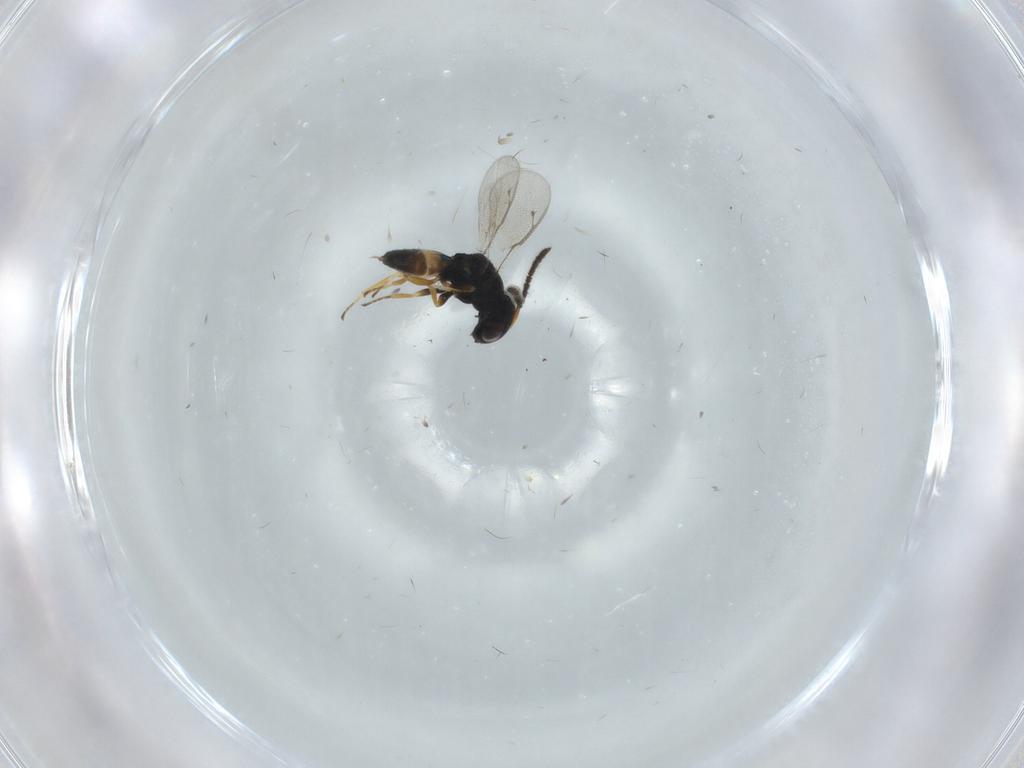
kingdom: Animalia
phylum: Arthropoda
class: Insecta
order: Hymenoptera
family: Pteromalidae
